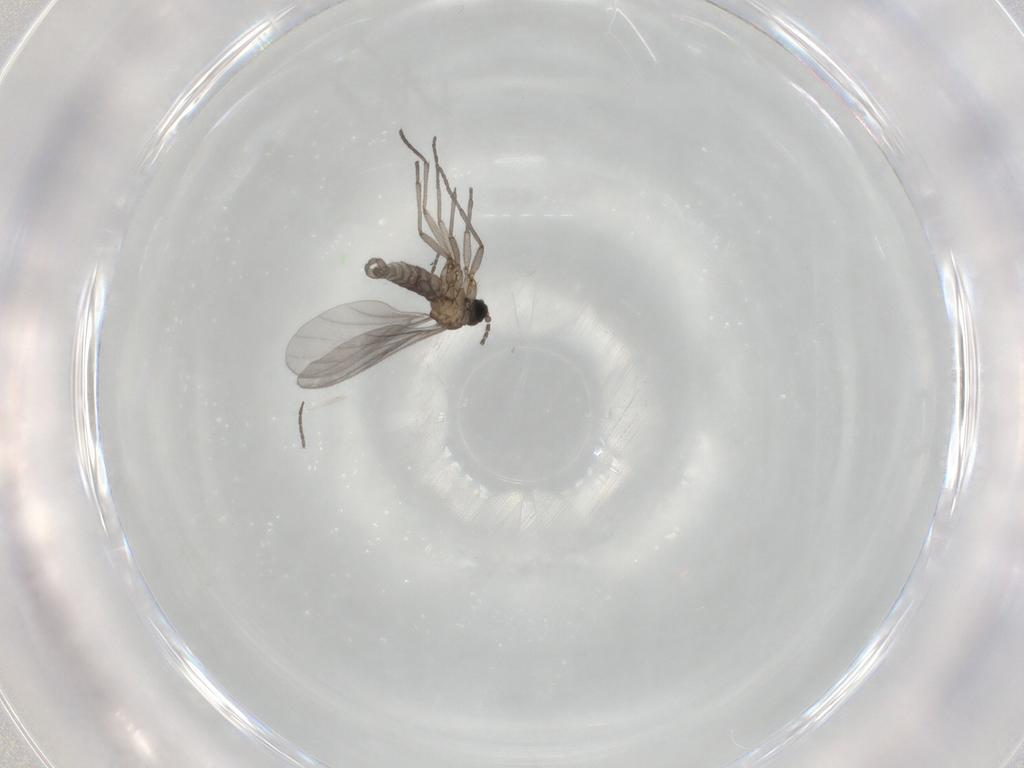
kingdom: Animalia
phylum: Arthropoda
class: Insecta
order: Diptera
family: Sciaridae
